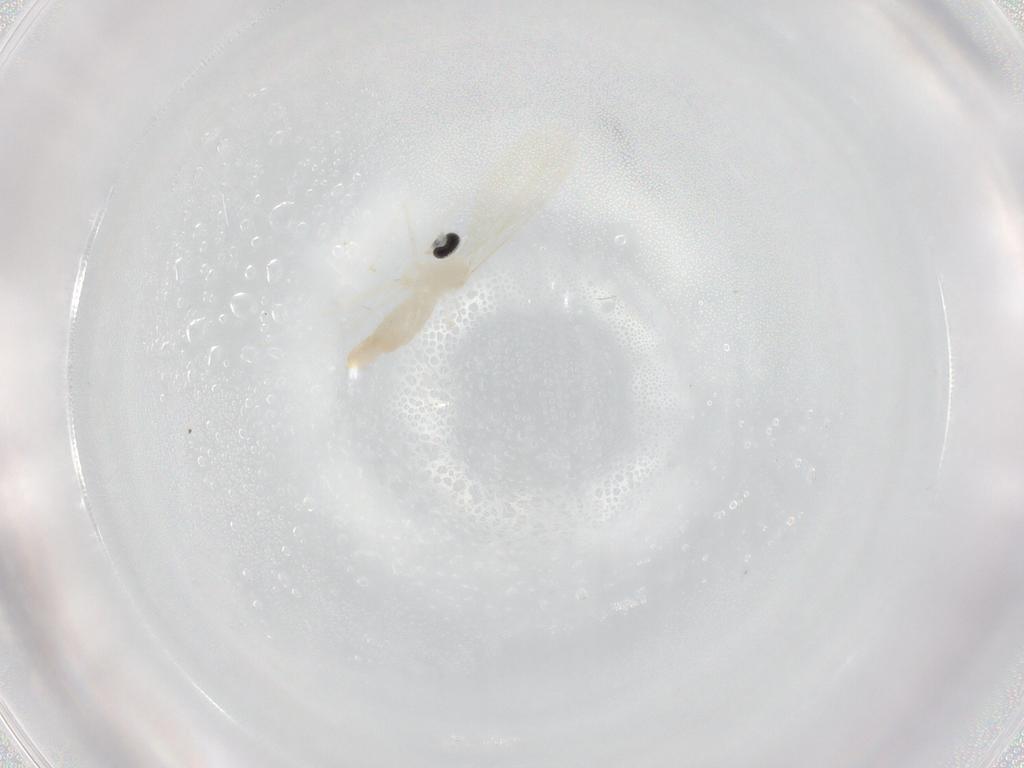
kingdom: Animalia
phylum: Arthropoda
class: Insecta
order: Diptera
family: Cecidomyiidae
